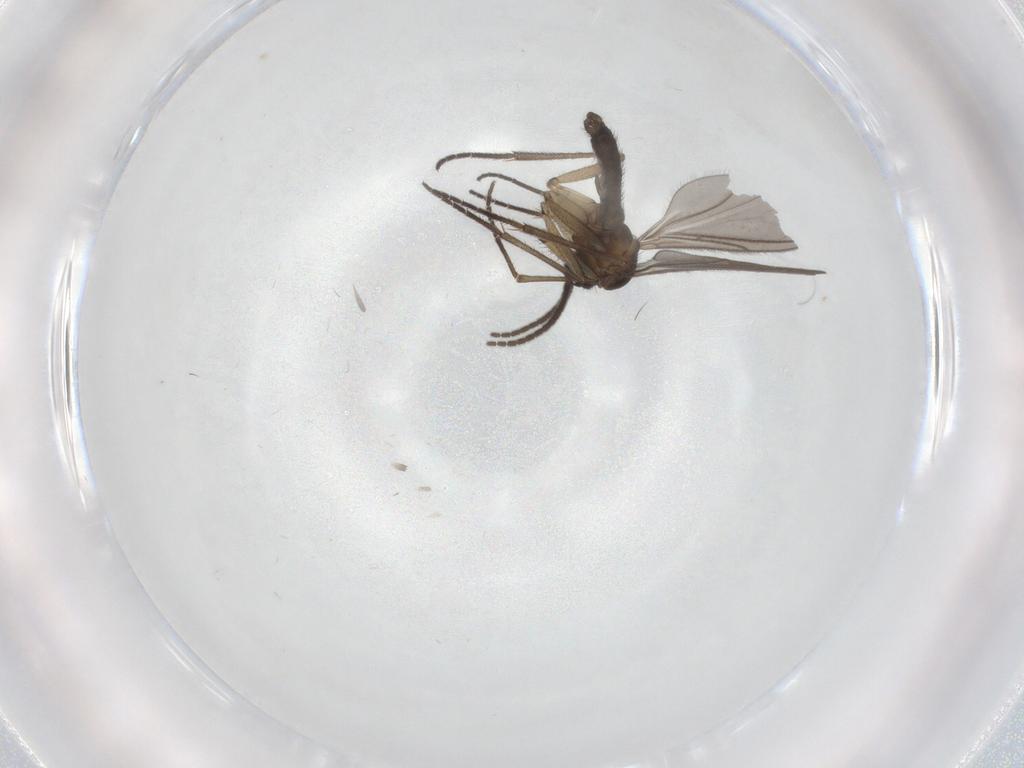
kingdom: Animalia
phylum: Arthropoda
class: Insecta
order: Diptera
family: Sciaridae
